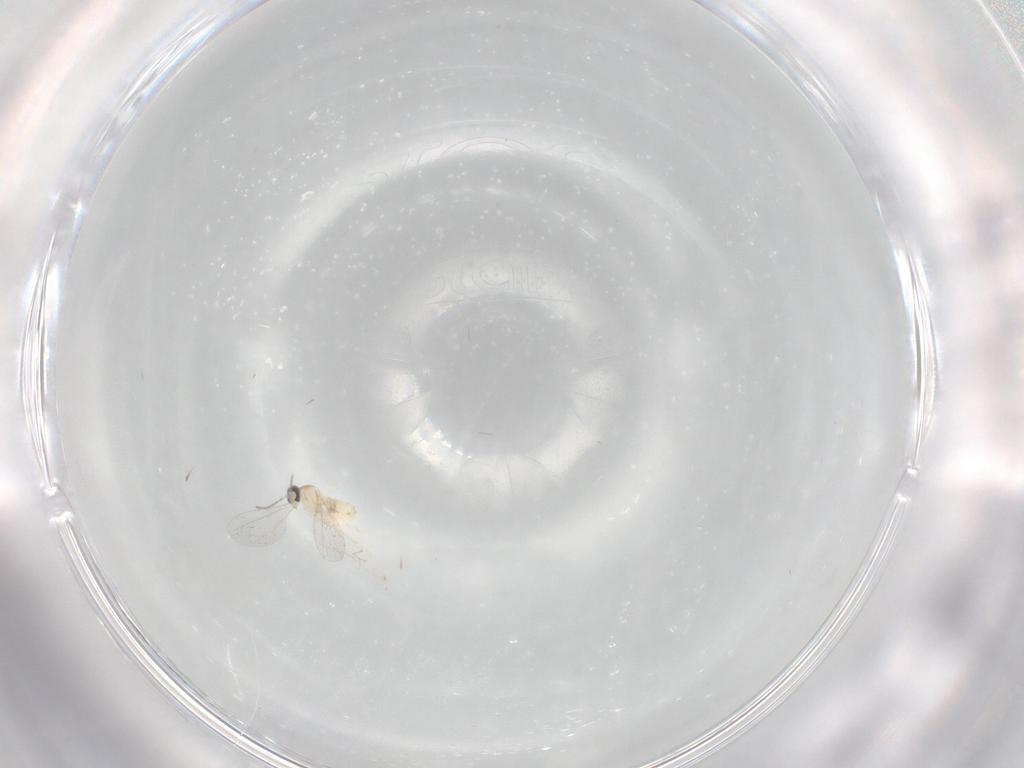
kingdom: Animalia
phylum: Arthropoda
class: Insecta
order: Diptera
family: Cecidomyiidae
